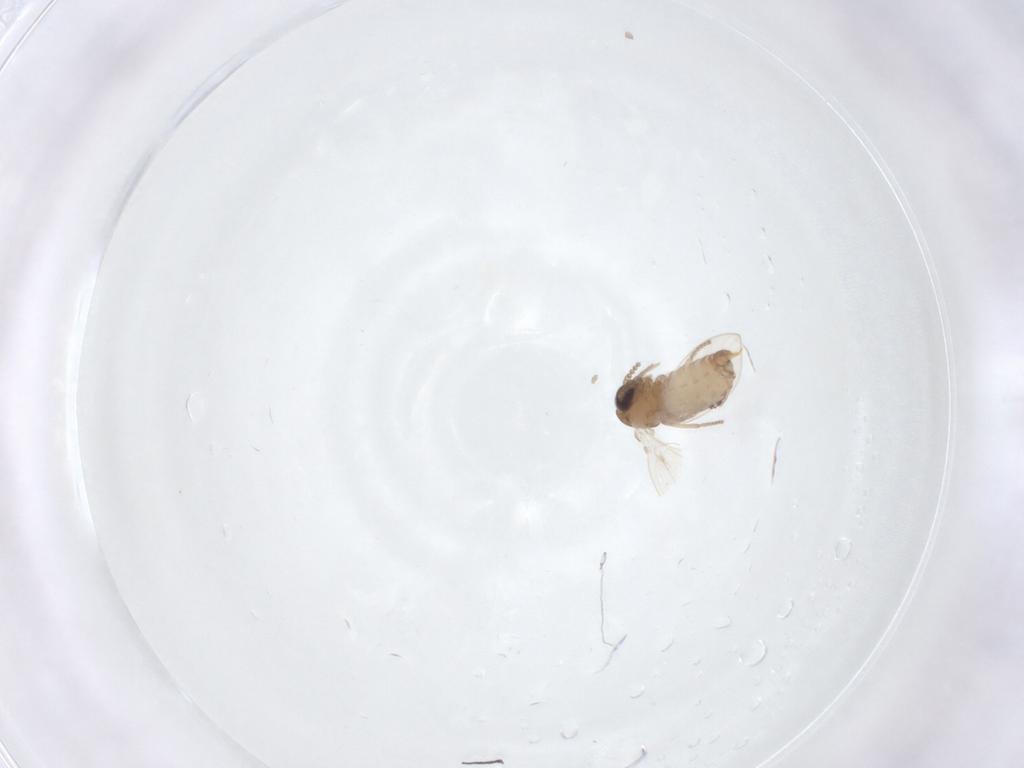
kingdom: Animalia
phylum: Arthropoda
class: Insecta
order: Diptera
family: Psychodidae
